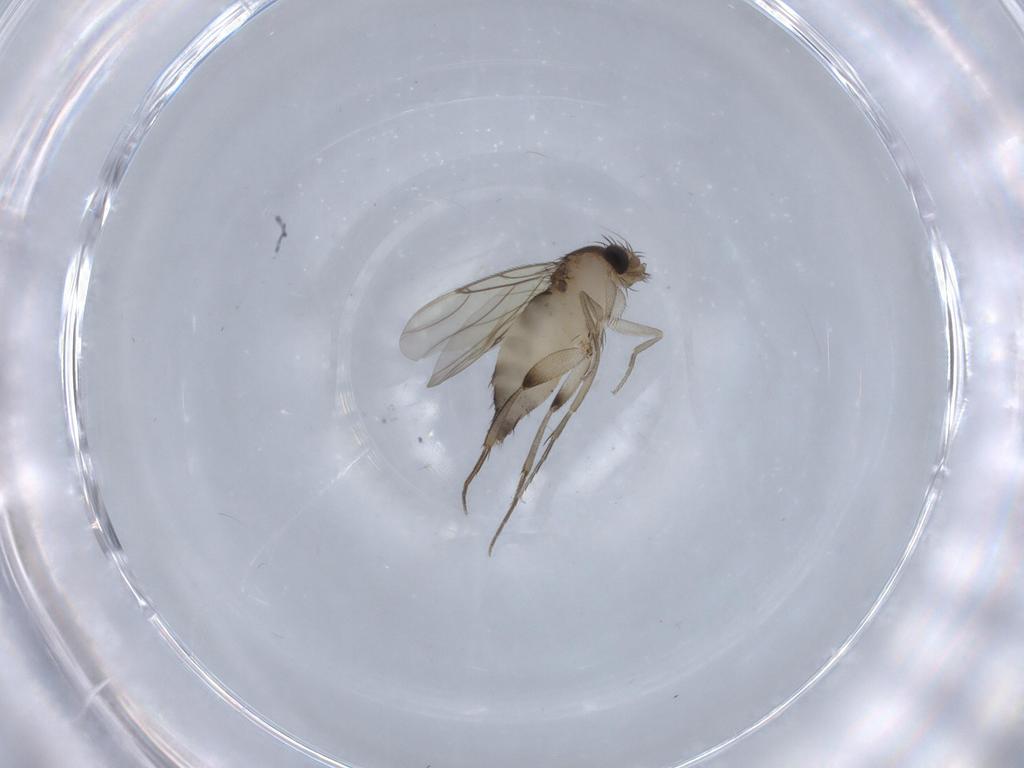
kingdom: Animalia
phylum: Arthropoda
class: Insecta
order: Diptera
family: Phoridae
